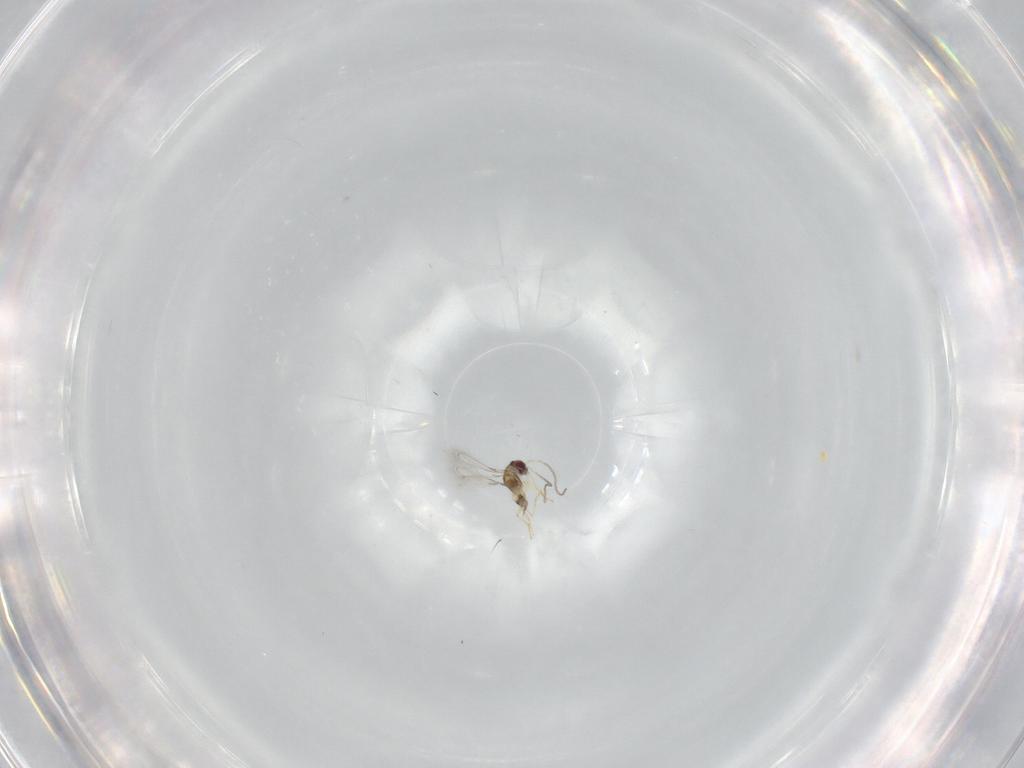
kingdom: Animalia
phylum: Arthropoda
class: Insecta
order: Hymenoptera
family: Mymaridae
